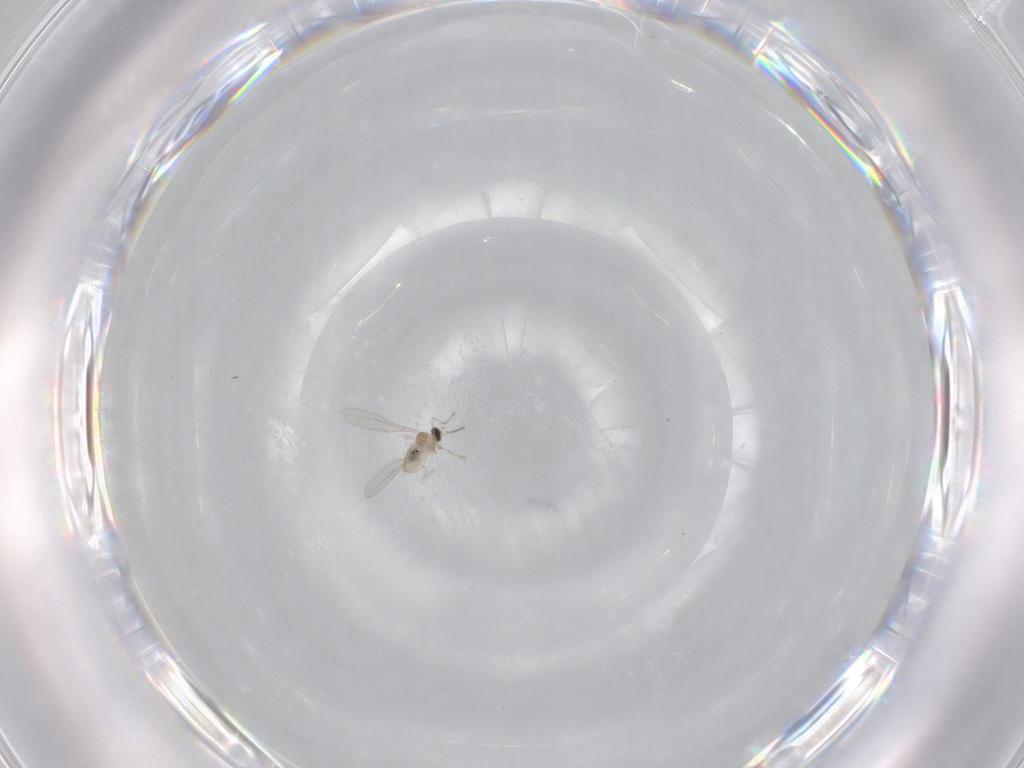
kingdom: Animalia
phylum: Arthropoda
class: Insecta
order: Diptera
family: Cecidomyiidae
